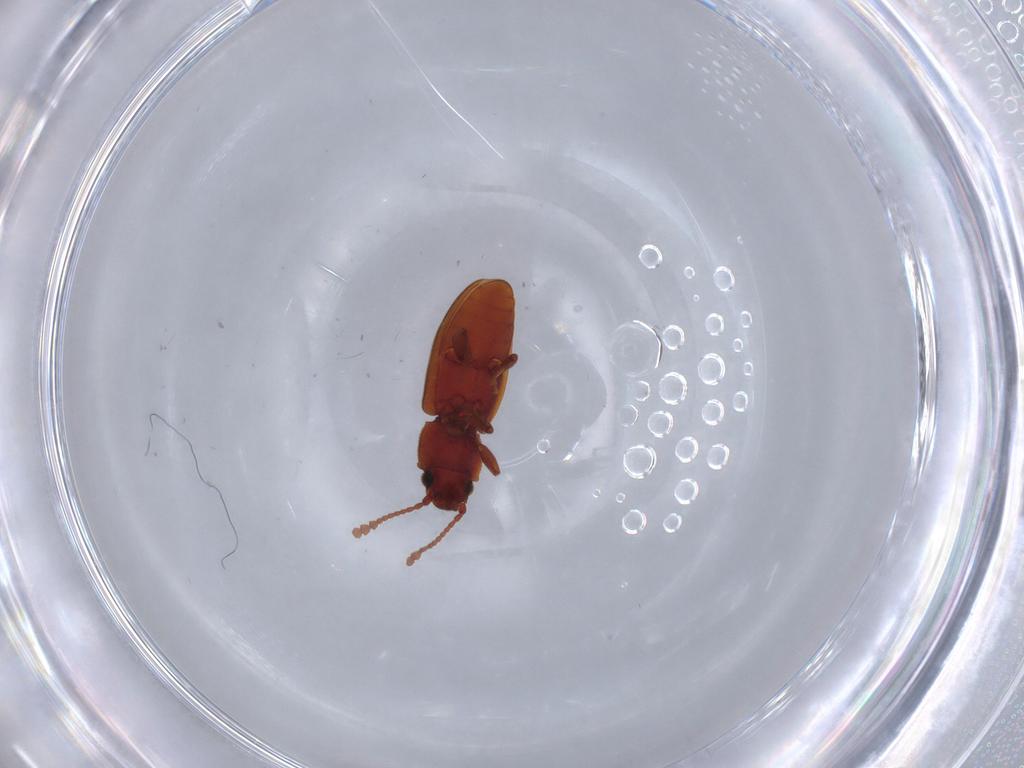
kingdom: Animalia
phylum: Arthropoda
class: Insecta
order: Coleoptera
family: Silvanidae
